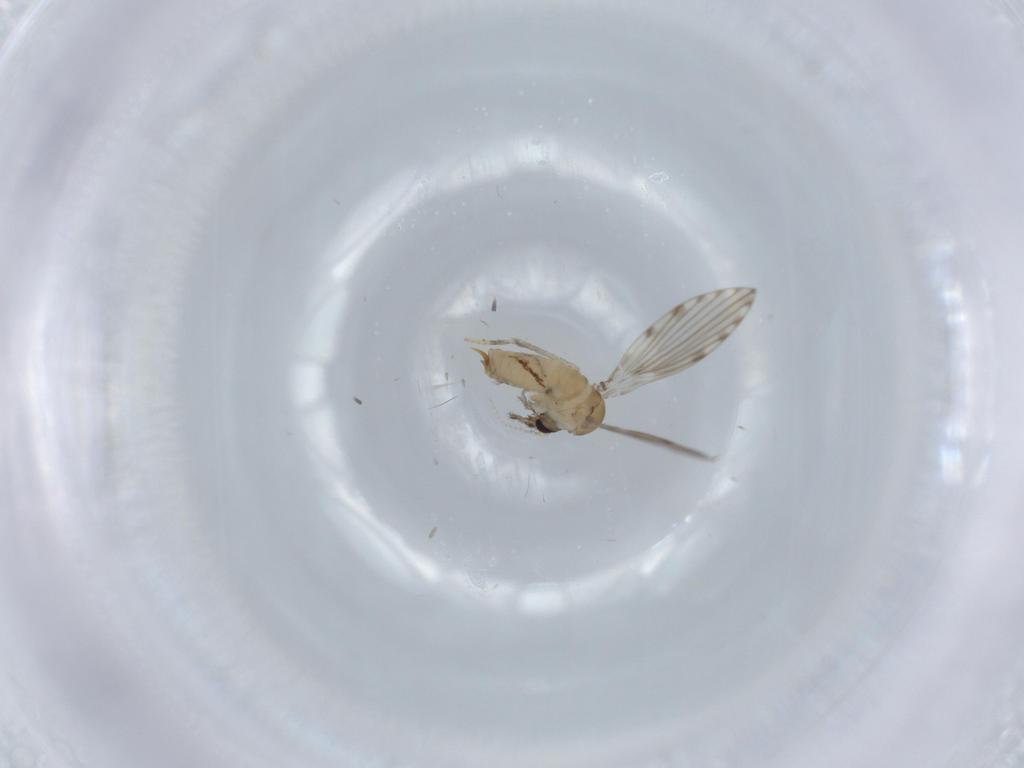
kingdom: Animalia
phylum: Arthropoda
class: Insecta
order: Diptera
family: Psychodidae
